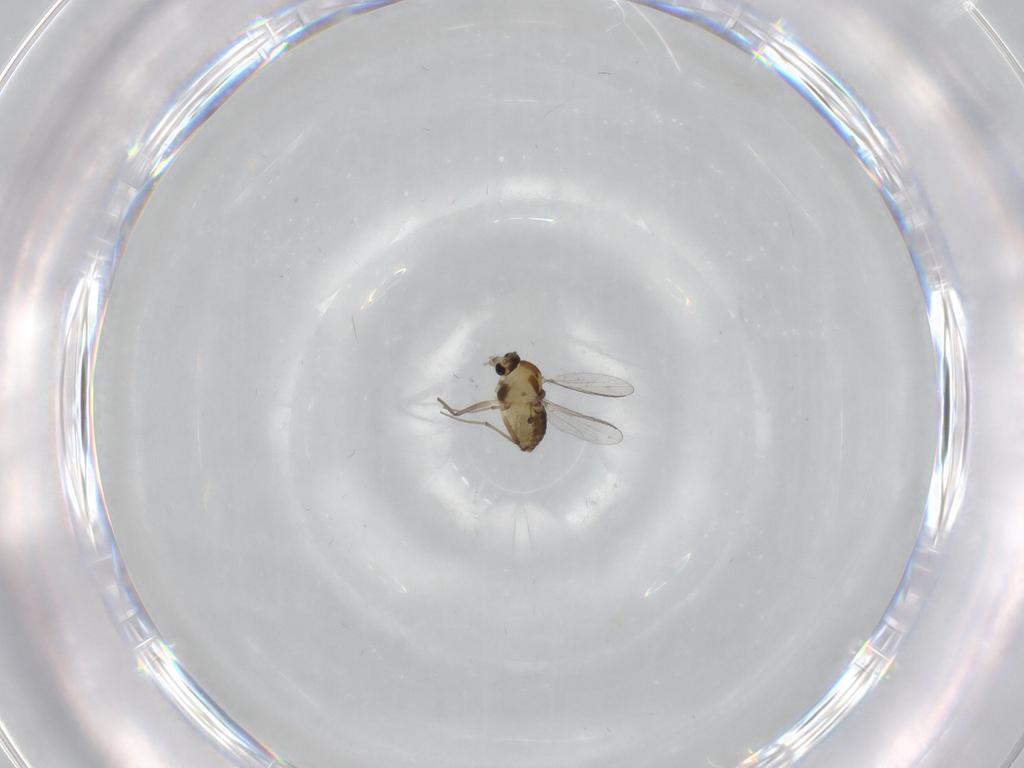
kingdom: Animalia
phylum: Arthropoda
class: Insecta
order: Diptera
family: Chironomidae
